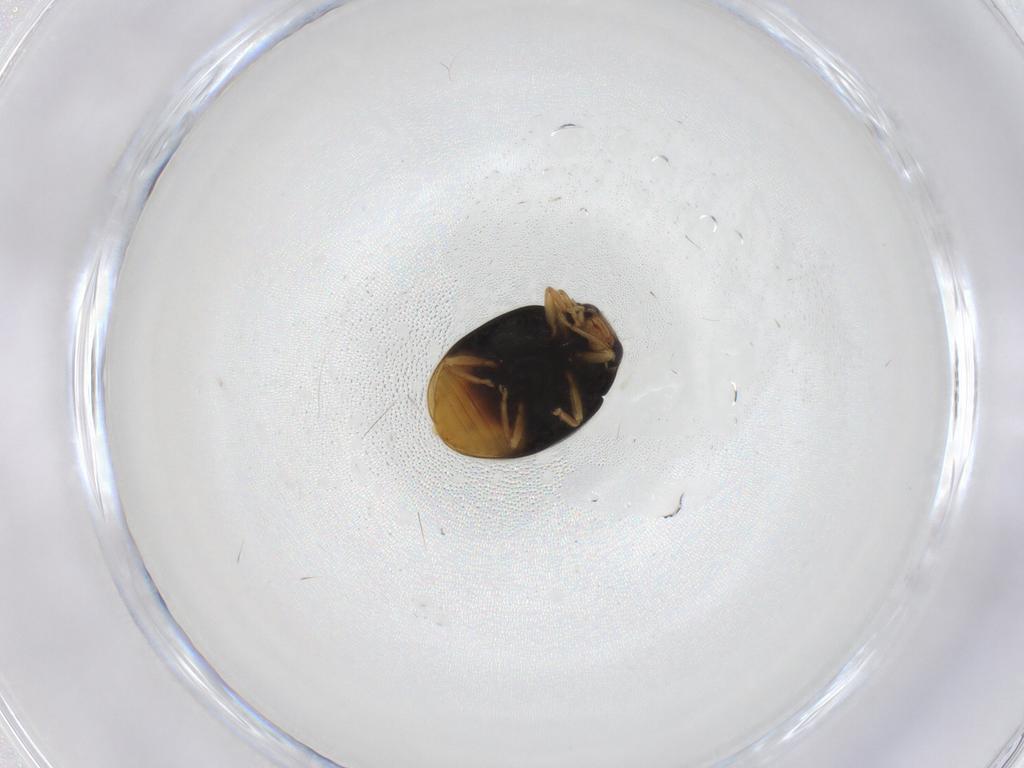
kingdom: Animalia
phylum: Arthropoda
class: Insecta
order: Coleoptera
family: Coccinellidae
